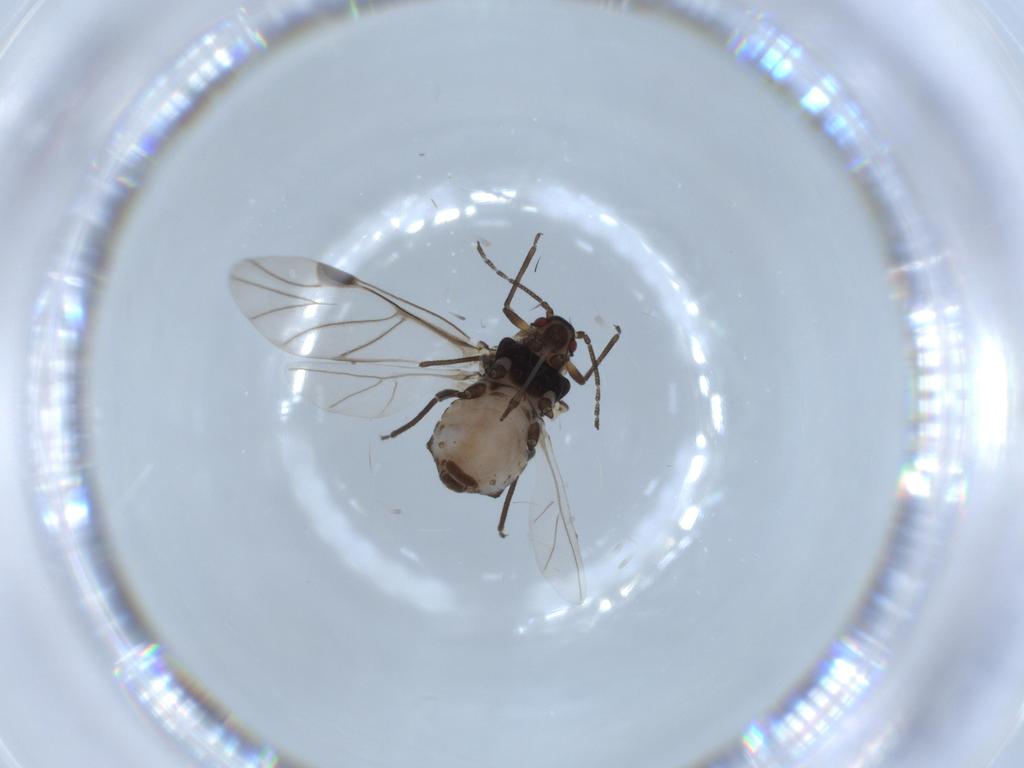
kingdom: Animalia
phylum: Arthropoda
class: Insecta
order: Hemiptera
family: Aphididae
